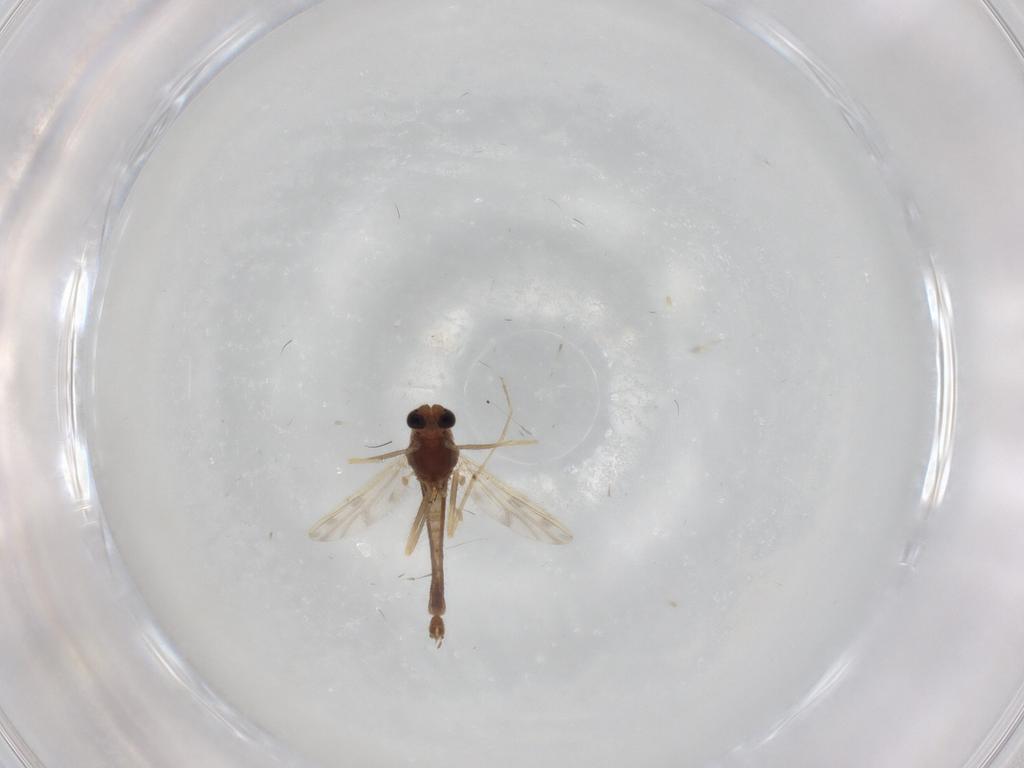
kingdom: Animalia
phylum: Arthropoda
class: Insecta
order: Diptera
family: Chironomidae
